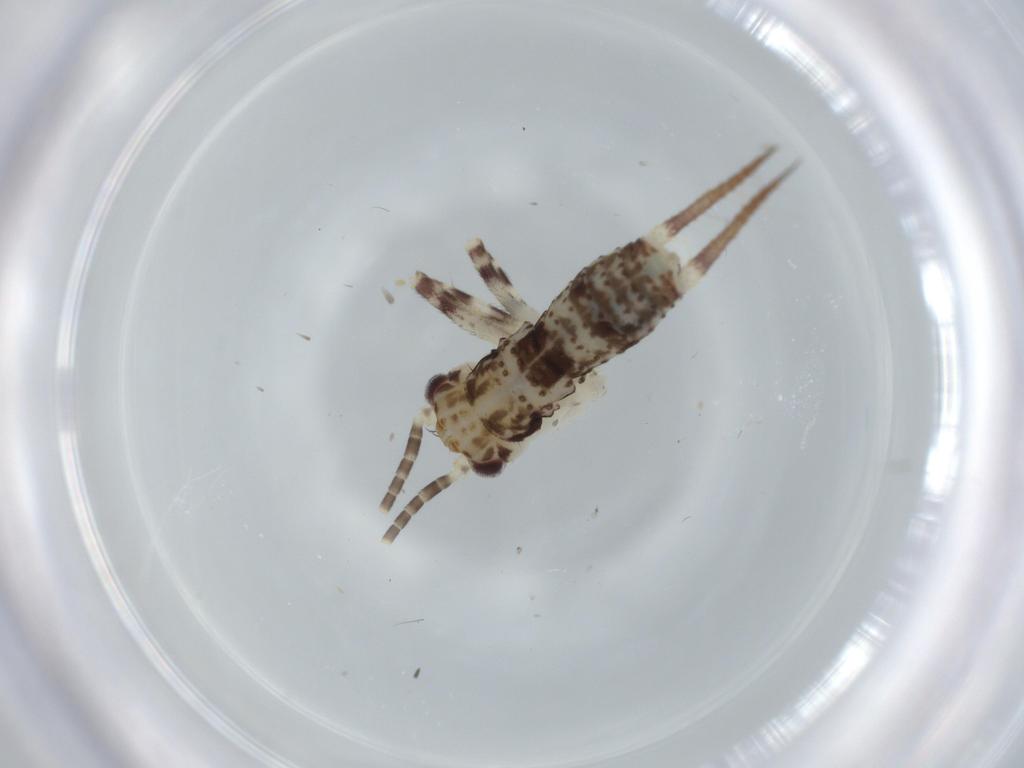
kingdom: Animalia
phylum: Arthropoda
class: Insecta
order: Orthoptera
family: Gryllidae
